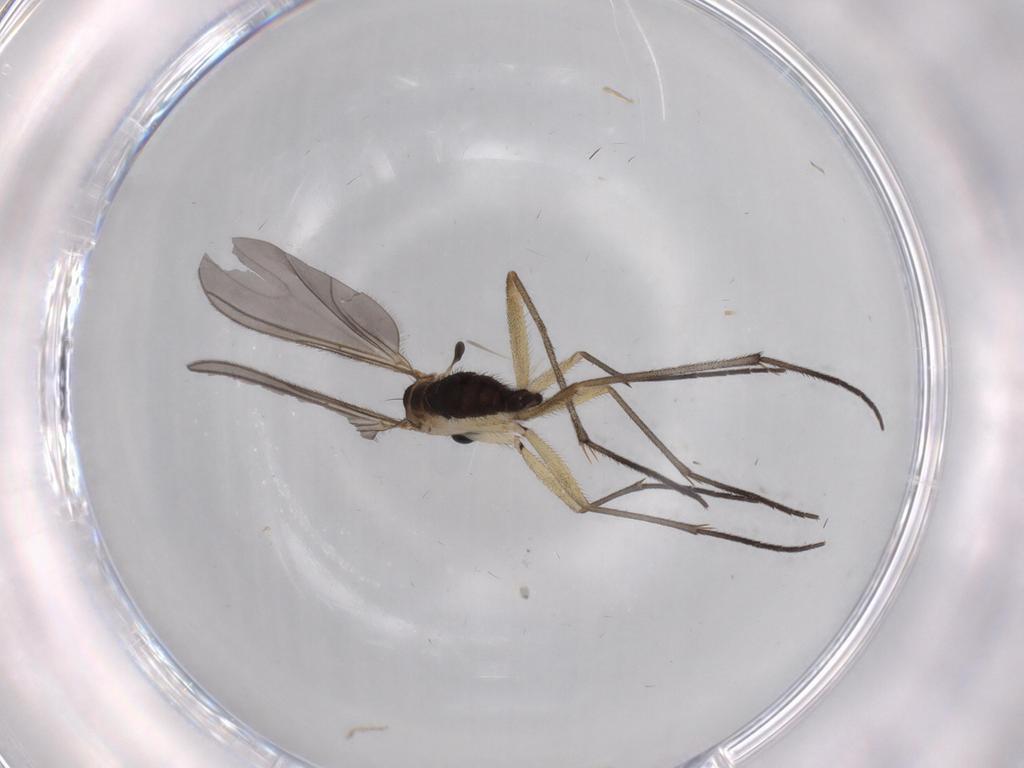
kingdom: Animalia
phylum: Arthropoda
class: Insecta
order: Diptera
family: Sciaridae
